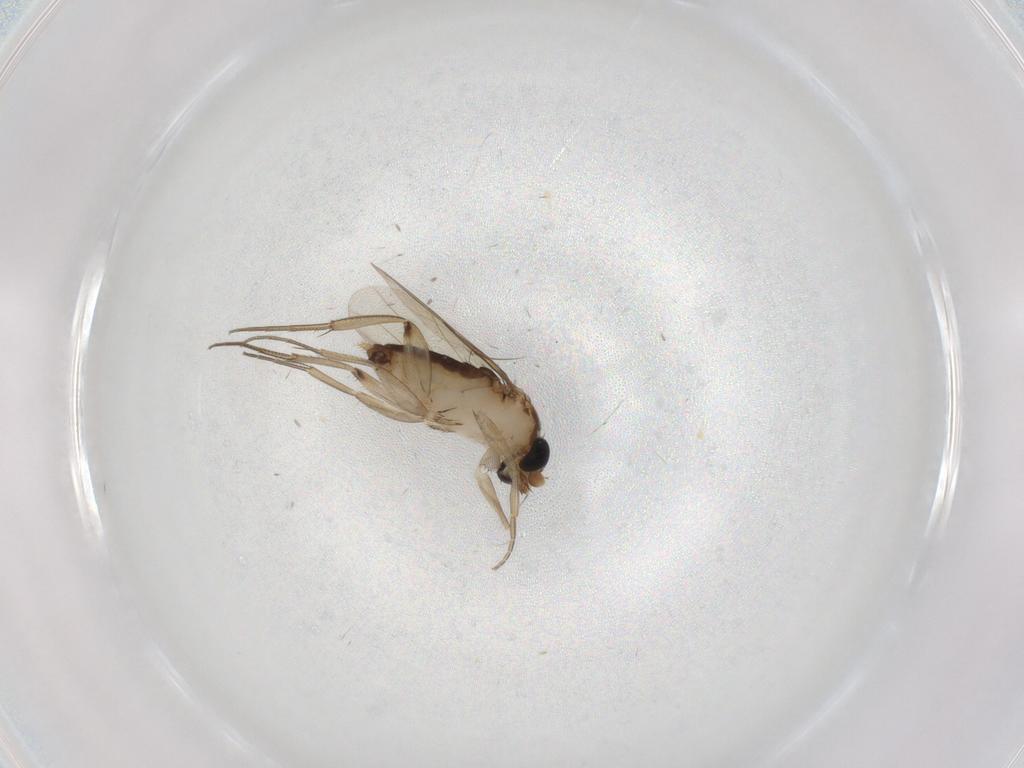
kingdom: Animalia
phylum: Arthropoda
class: Insecta
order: Diptera
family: Phoridae
